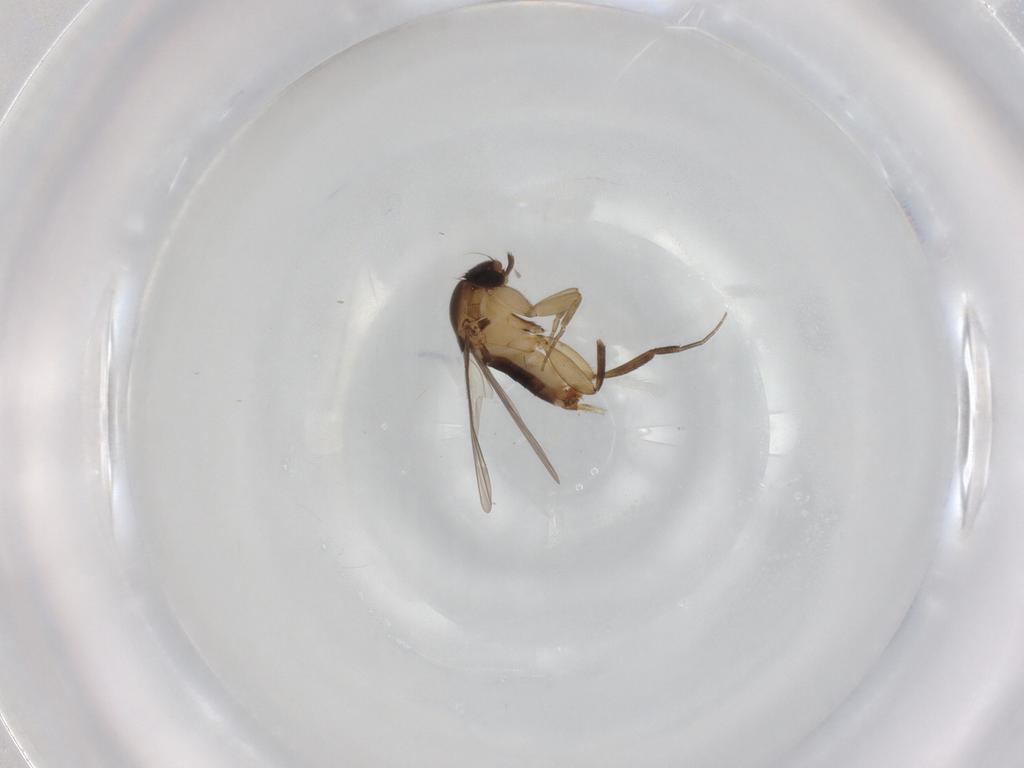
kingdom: Animalia
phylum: Arthropoda
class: Insecta
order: Diptera
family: Phoridae
